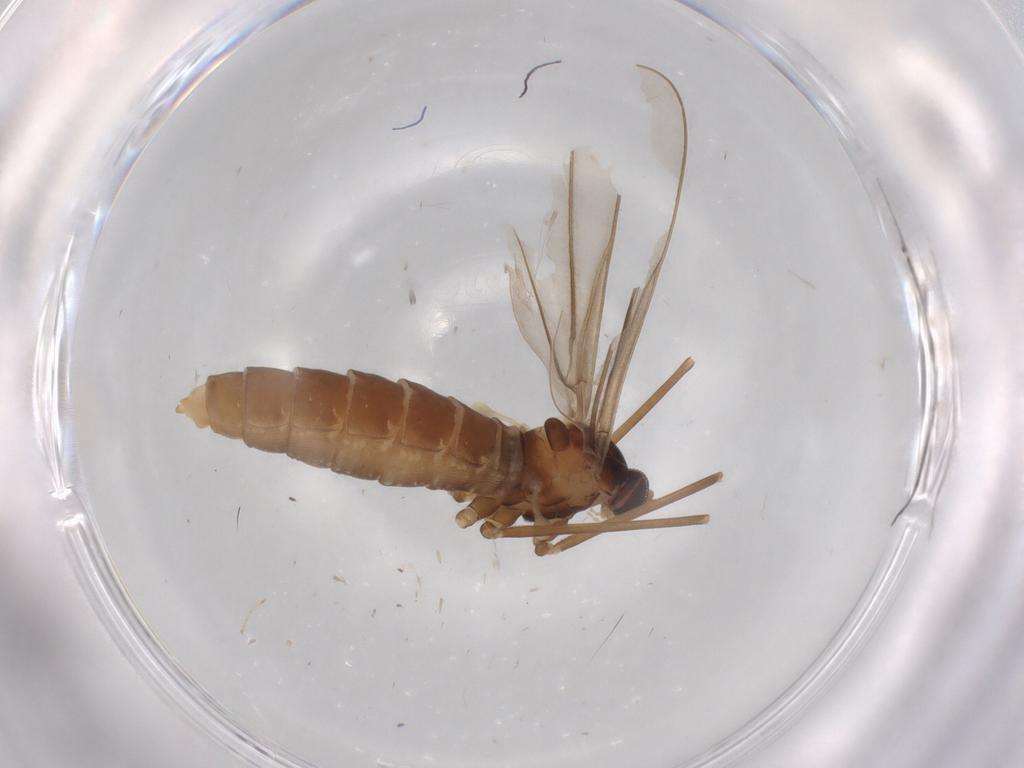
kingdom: Animalia
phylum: Arthropoda
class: Insecta
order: Diptera
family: Cecidomyiidae
